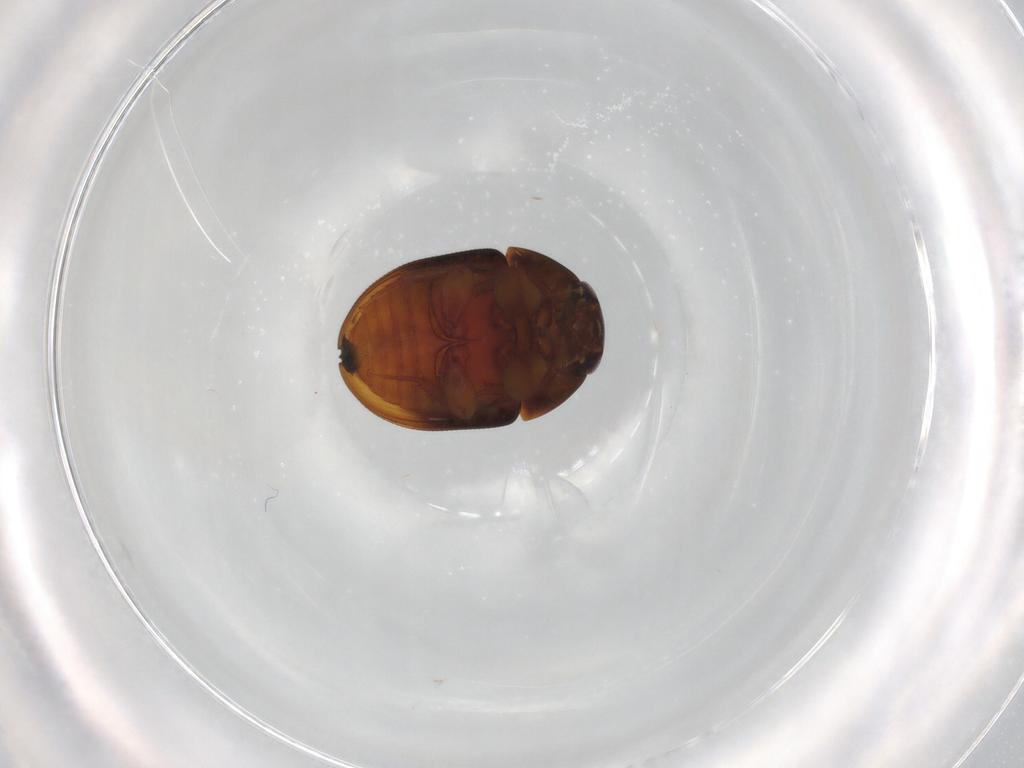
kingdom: Animalia
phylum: Arthropoda
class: Insecta
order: Coleoptera
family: Phalacridae
